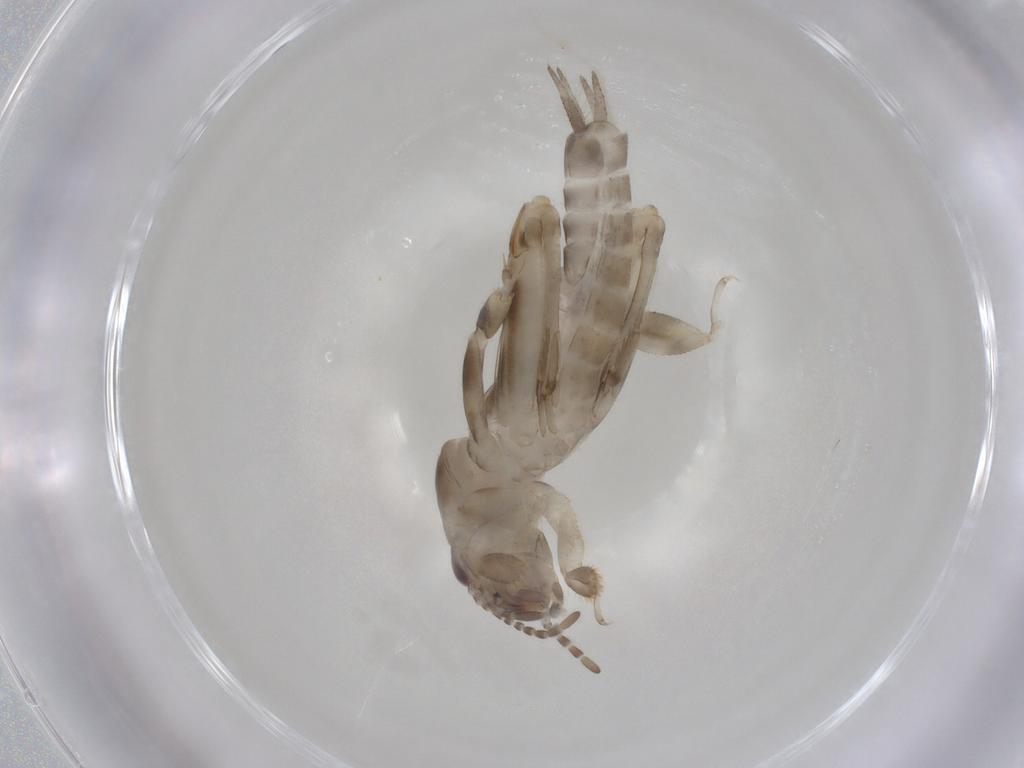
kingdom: Animalia
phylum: Arthropoda
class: Insecta
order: Orthoptera
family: Tridactylidae
